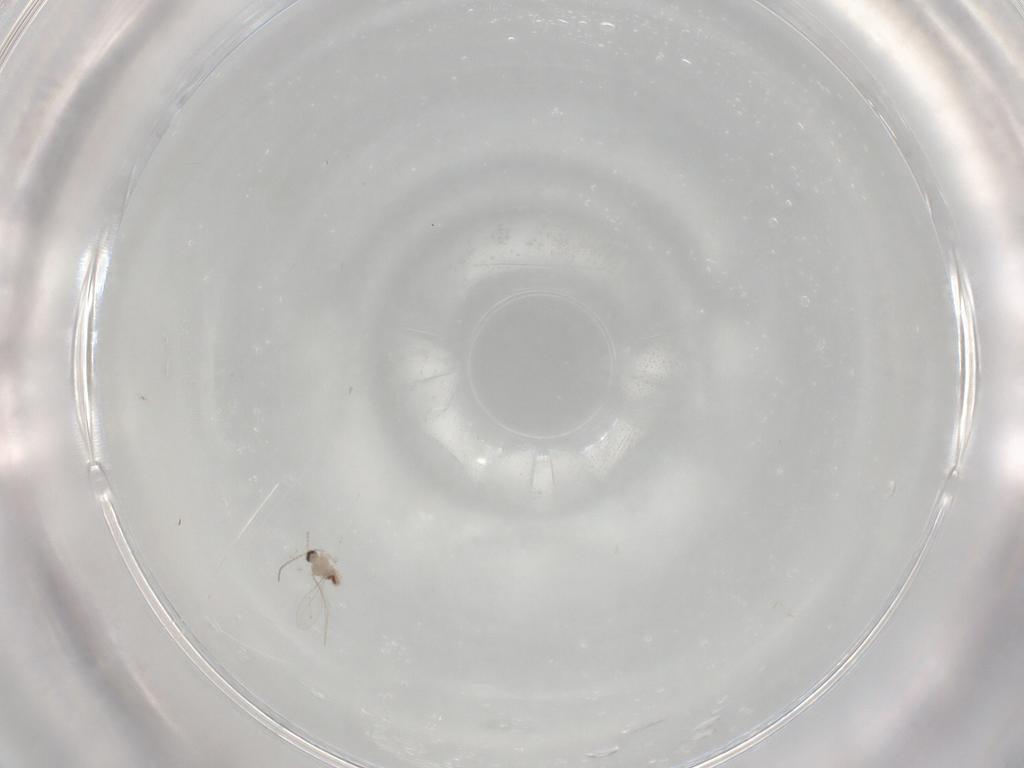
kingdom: Animalia
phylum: Arthropoda
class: Insecta
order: Diptera
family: Cecidomyiidae
